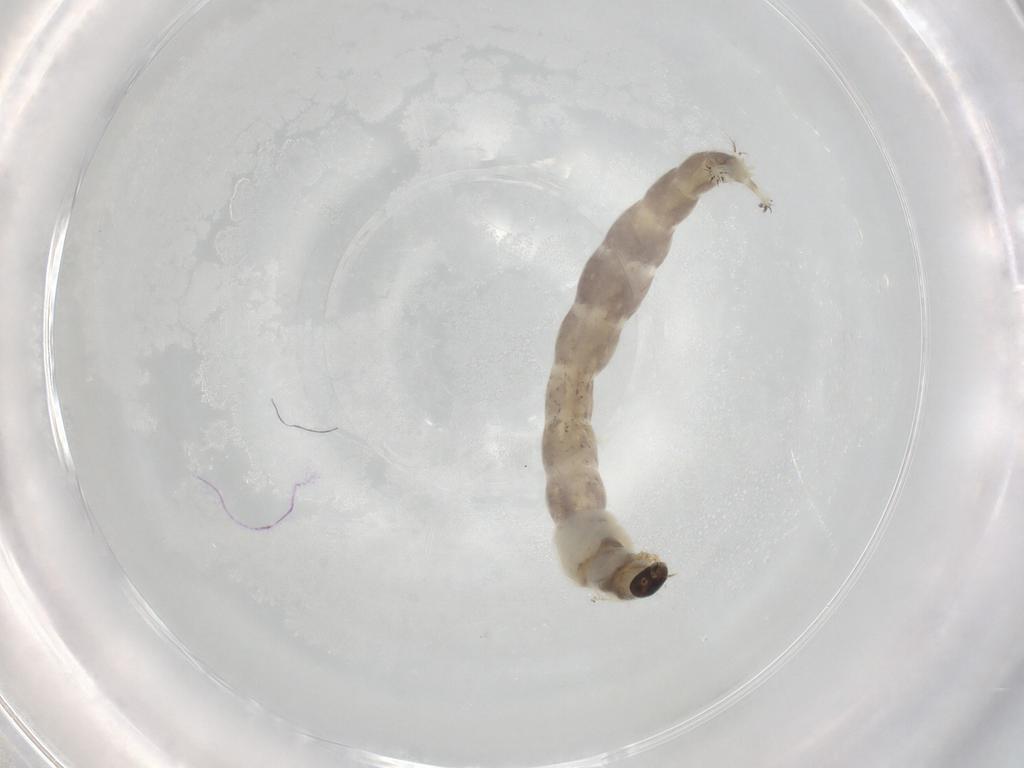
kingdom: Animalia
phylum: Arthropoda
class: Insecta
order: Diptera
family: Chironomidae
